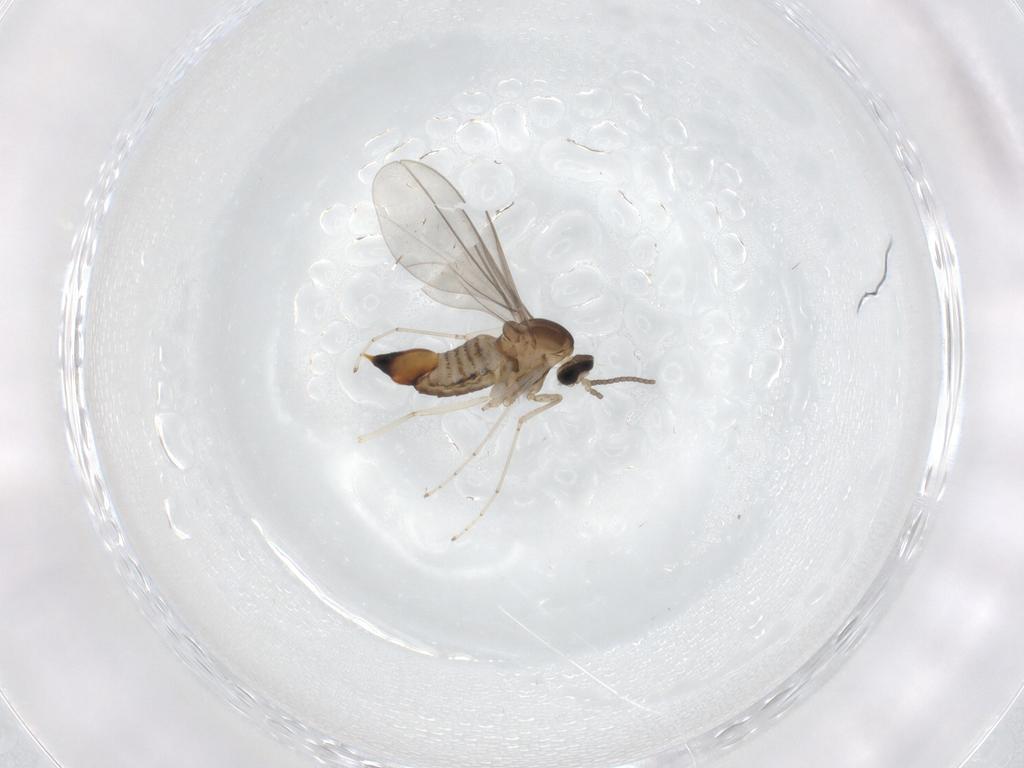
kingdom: Animalia
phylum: Arthropoda
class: Insecta
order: Diptera
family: Cecidomyiidae
